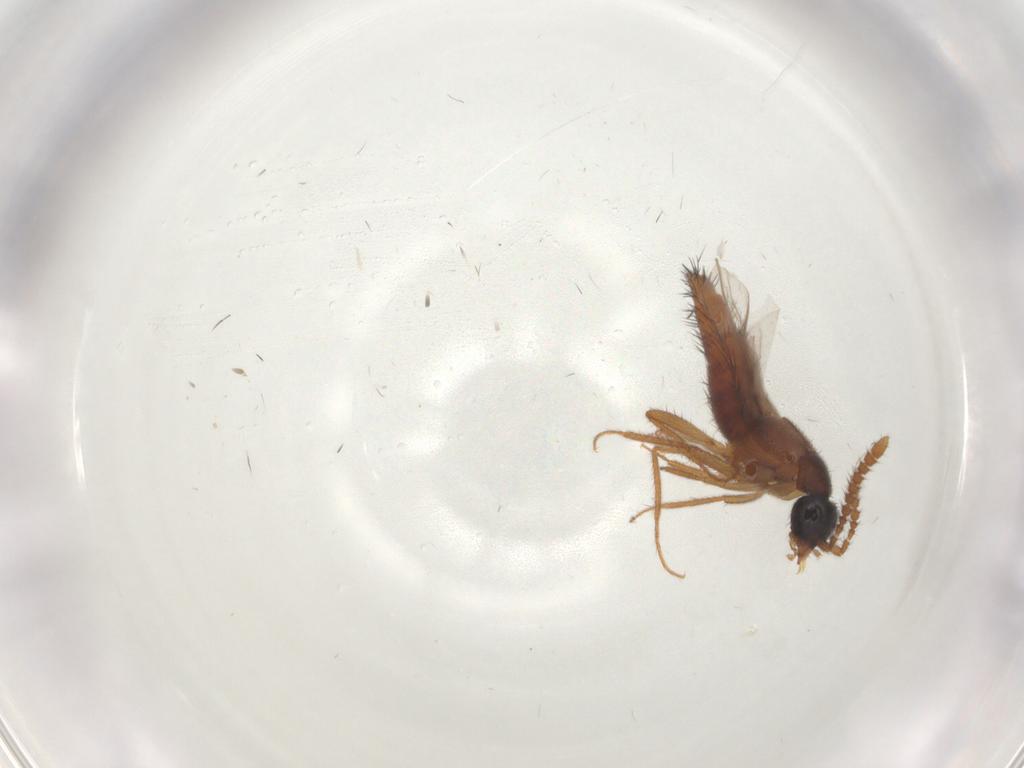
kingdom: Animalia
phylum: Arthropoda
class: Insecta
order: Coleoptera
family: Staphylinidae
